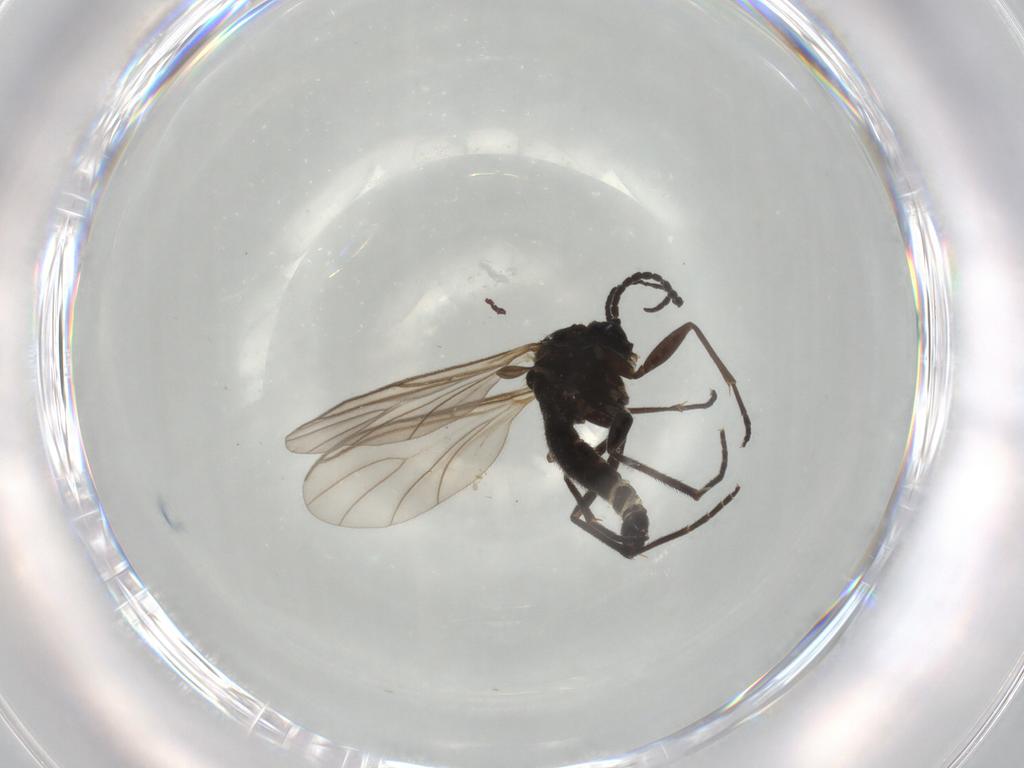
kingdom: Animalia
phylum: Arthropoda
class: Insecta
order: Diptera
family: Sciaridae
